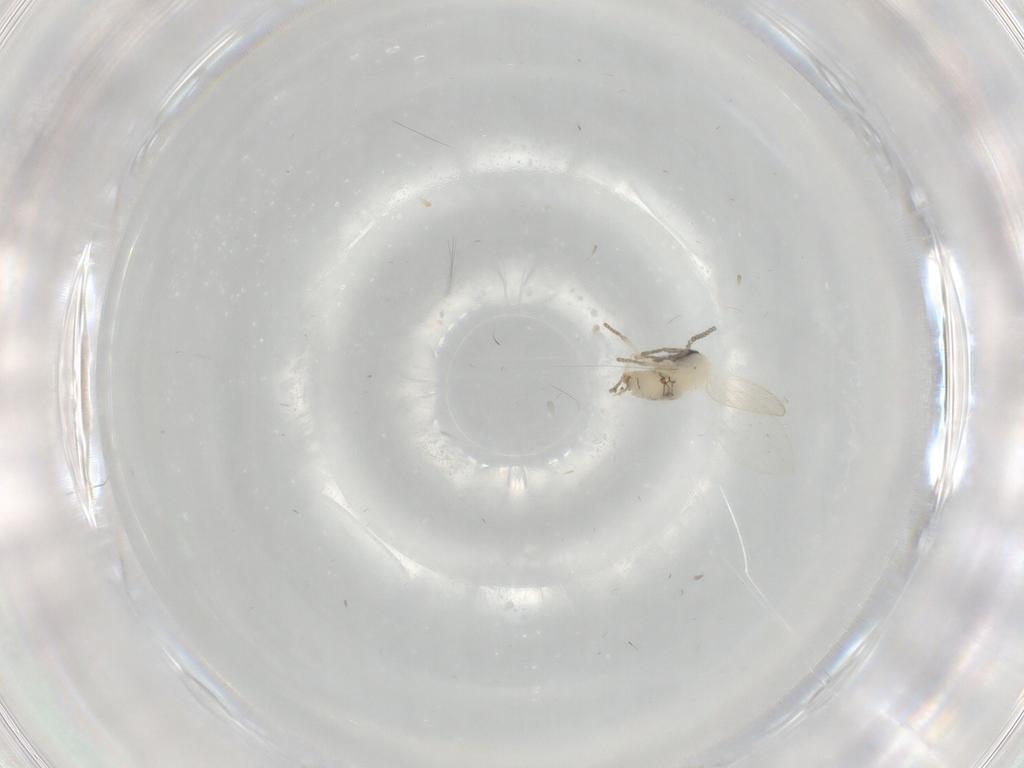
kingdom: Animalia
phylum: Arthropoda
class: Insecta
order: Diptera
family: Psychodidae
